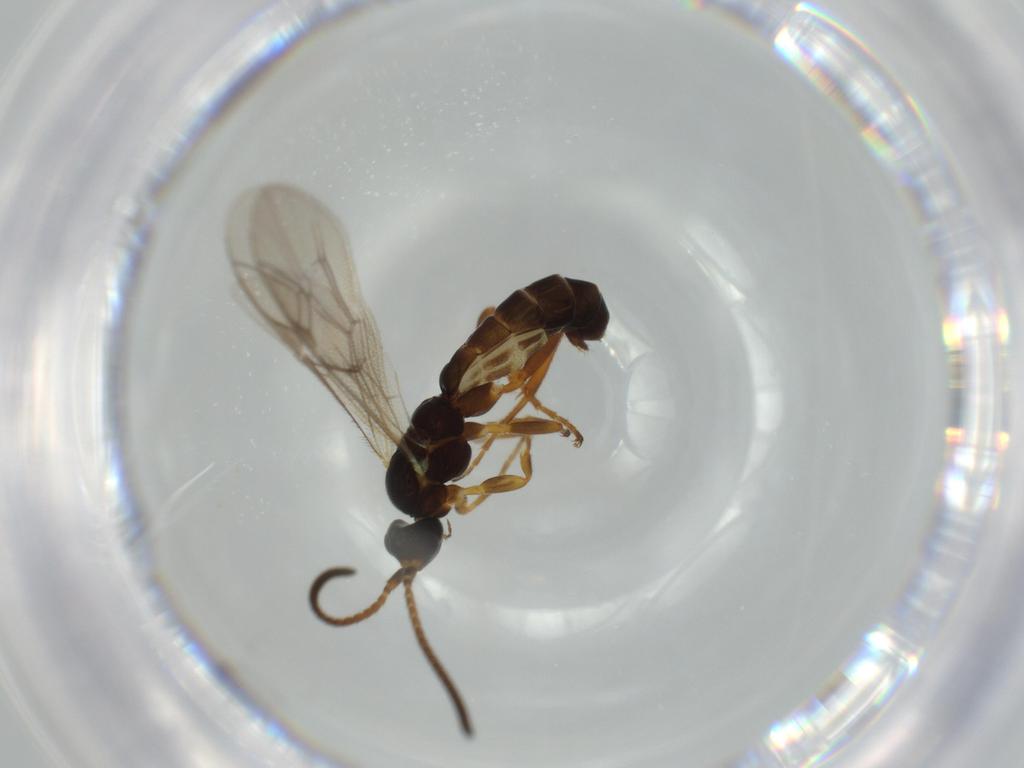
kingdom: Animalia
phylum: Arthropoda
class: Insecta
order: Hymenoptera
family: Ichneumonidae
